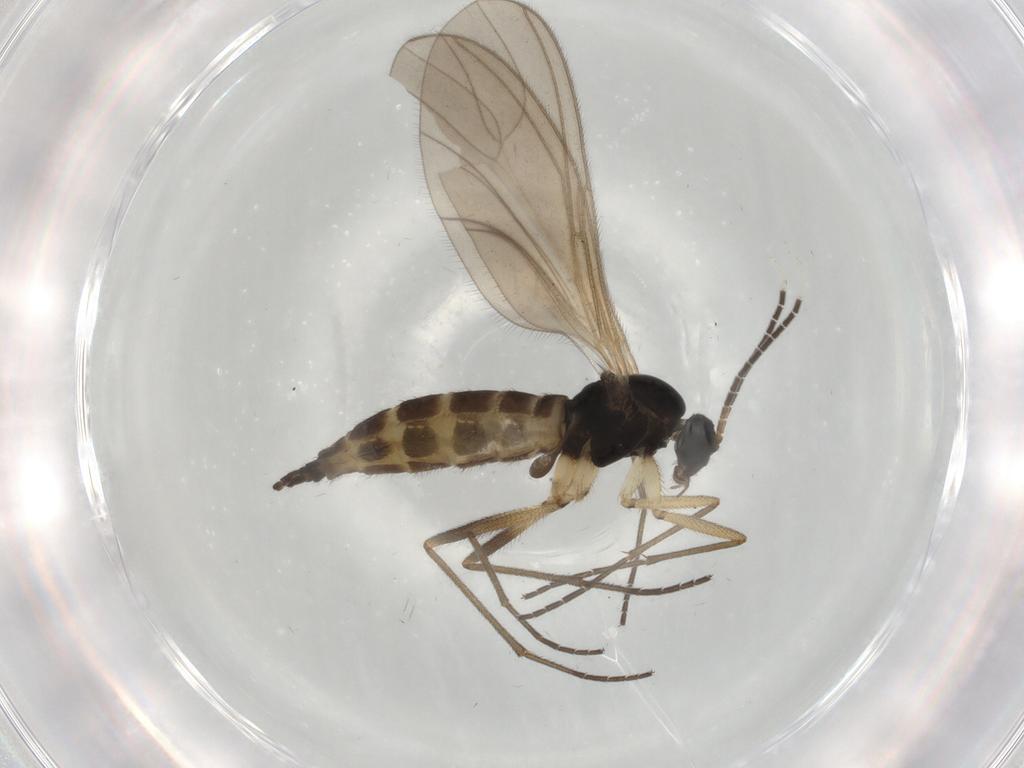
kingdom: Animalia
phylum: Arthropoda
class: Insecta
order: Diptera
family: Sciaridae
